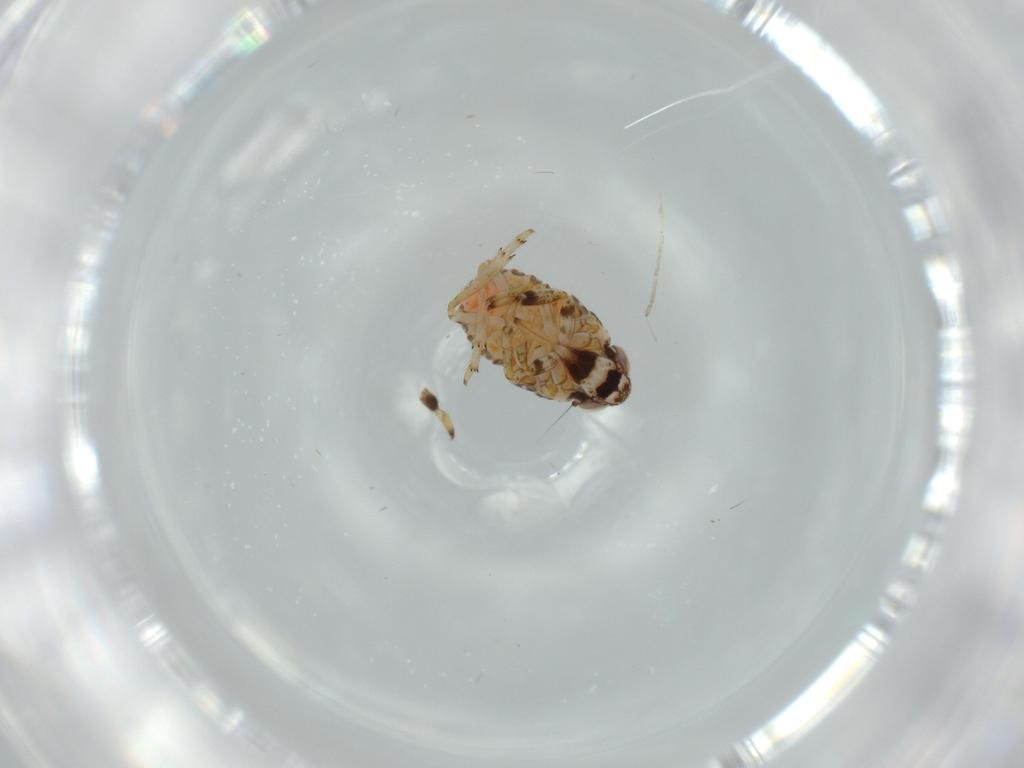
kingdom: Animalia
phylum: Arthropoda
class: Insecta
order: Hemiptera
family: Issidae
